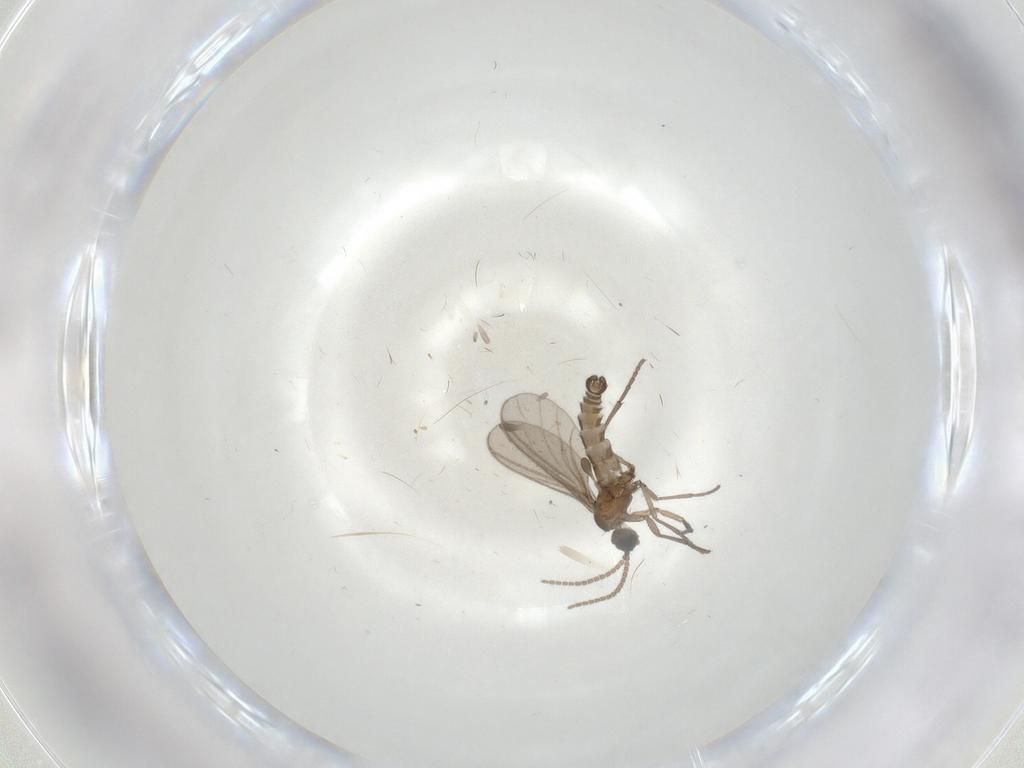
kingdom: Animalia
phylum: Arthropoda
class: Insecta
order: Diptera
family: Sciaridae
